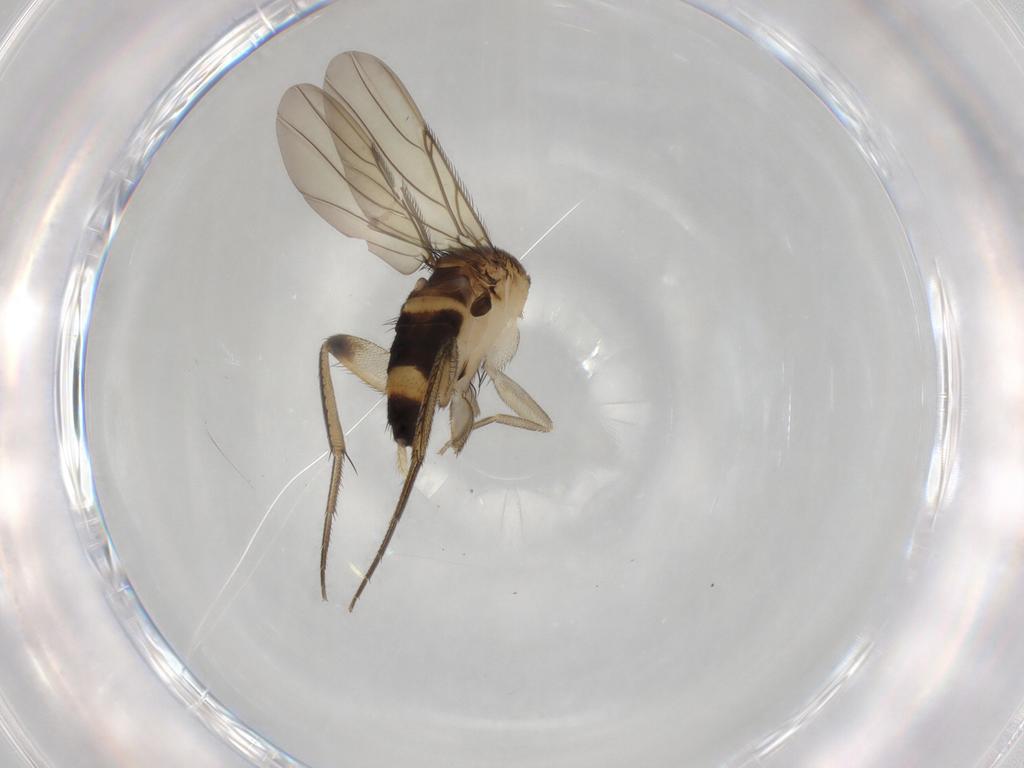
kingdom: Animalia
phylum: Arthropoda
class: Insecta
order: Diptera
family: Phoridae
